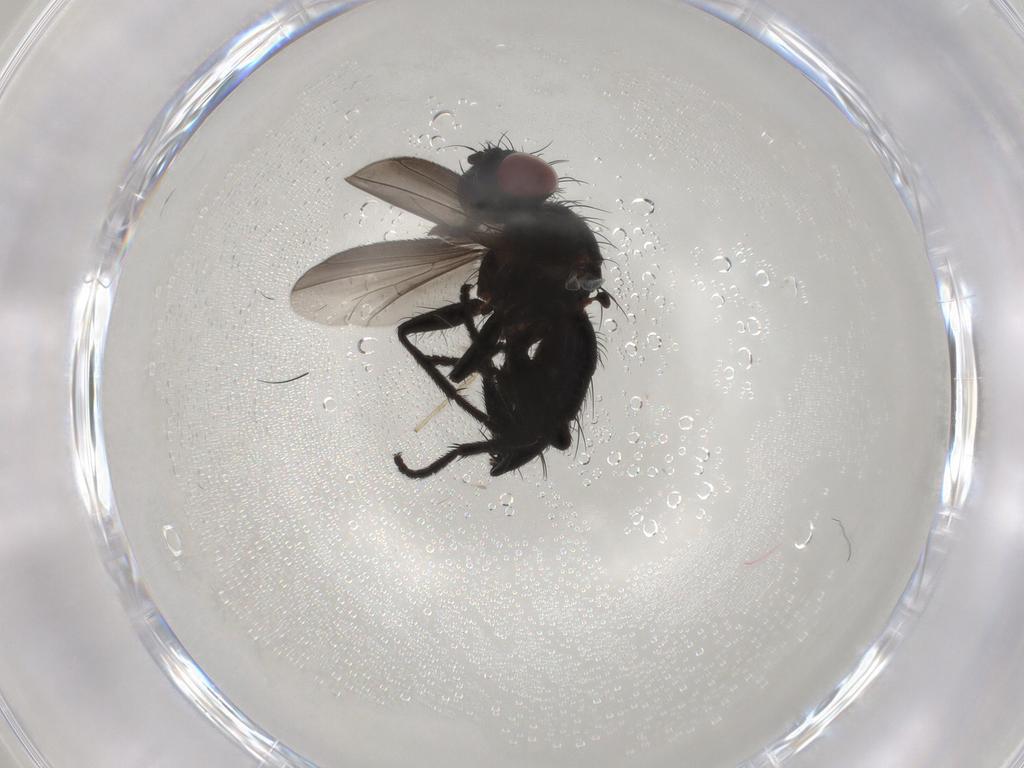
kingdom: Animalia
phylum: Arthropoda
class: Insecta
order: Diptera
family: Tachinidae
